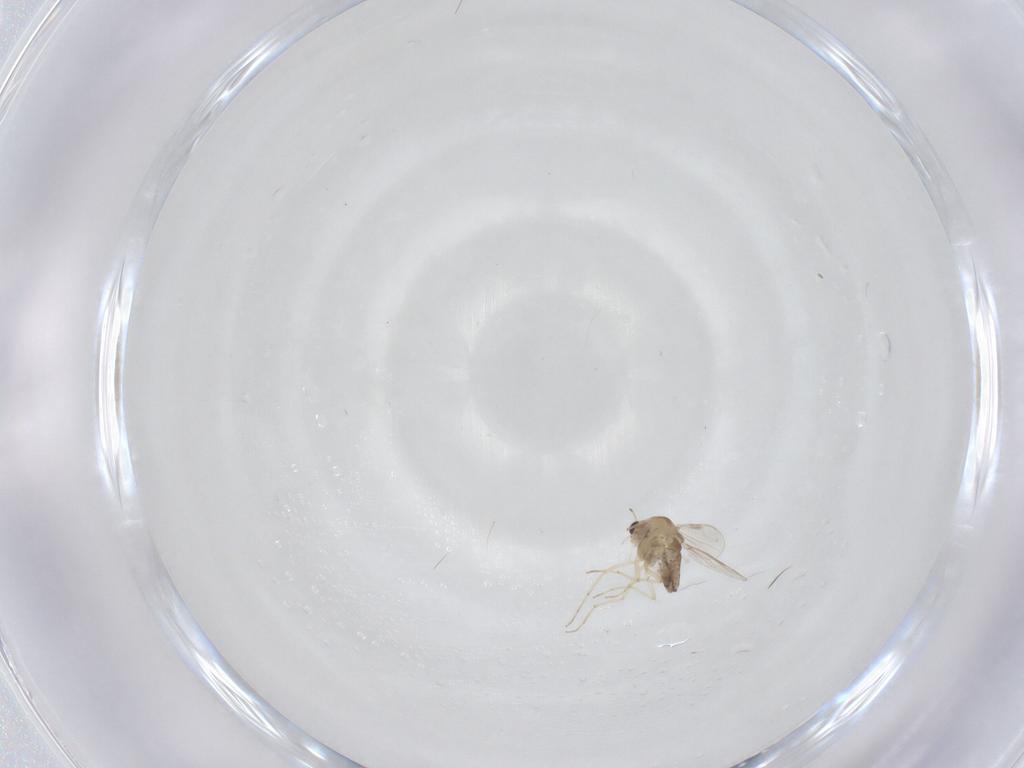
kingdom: Animalia
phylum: Arthropoda
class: Insecta
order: Diptera
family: Chironomidae
